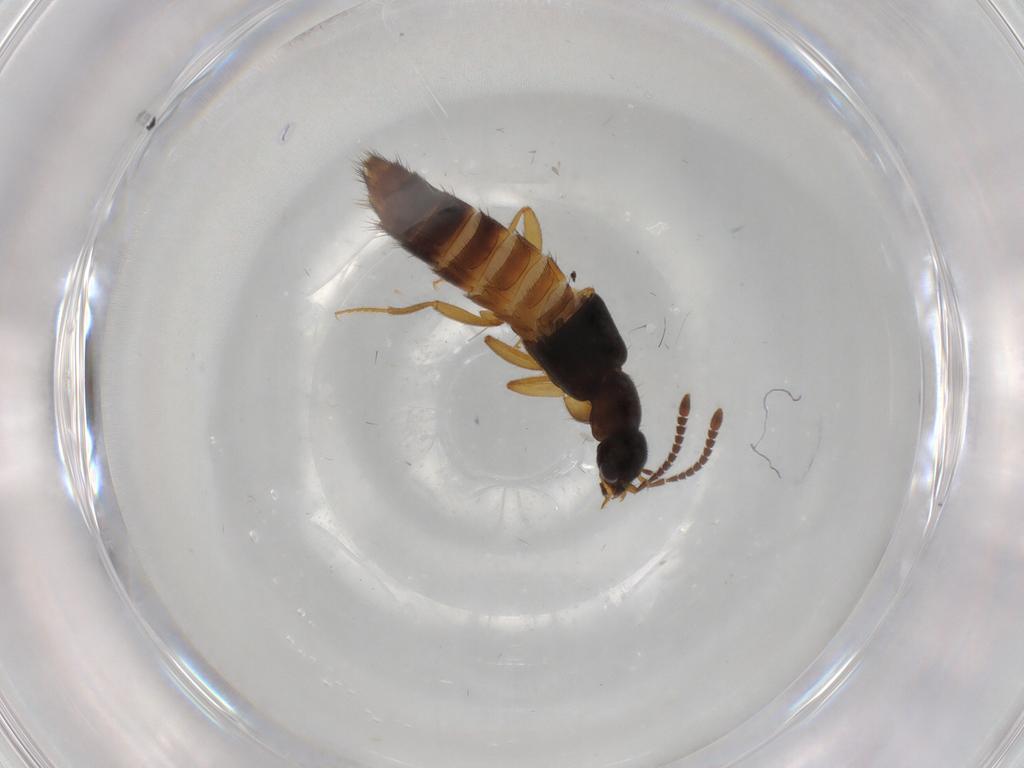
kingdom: Animalia
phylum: Arthropoda
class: Insecta
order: Coleoptera
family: Staphylinidae
